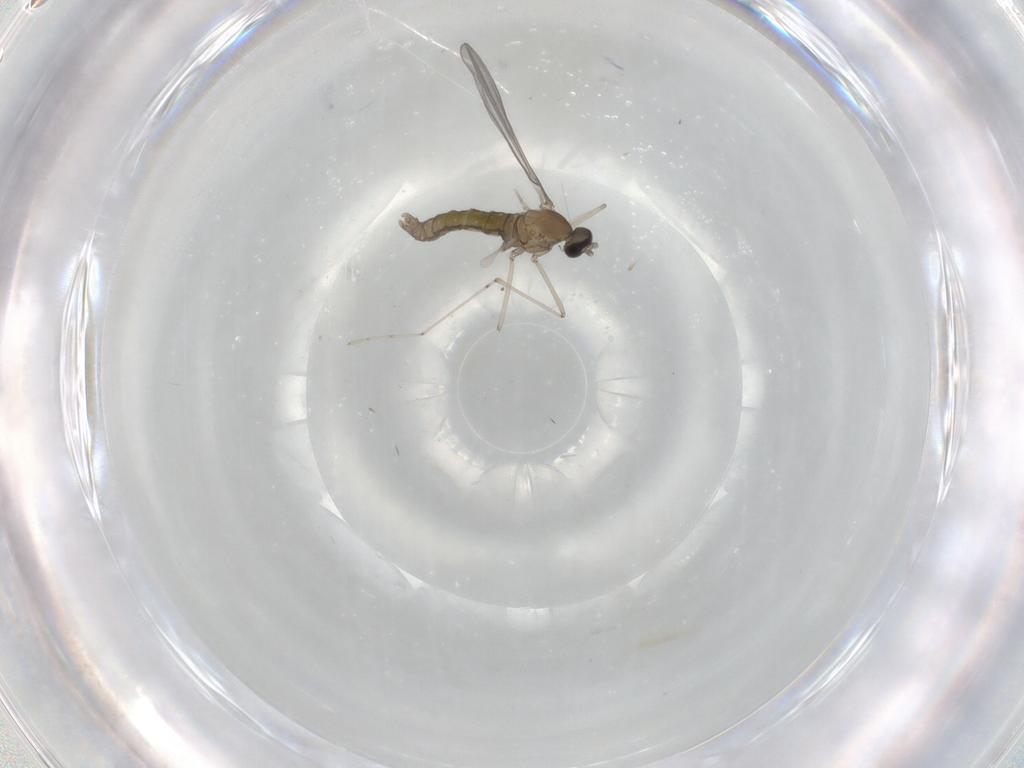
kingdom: Animalia
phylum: Arthropoda
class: Insecta
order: Diptera
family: Cecidomyiidae
